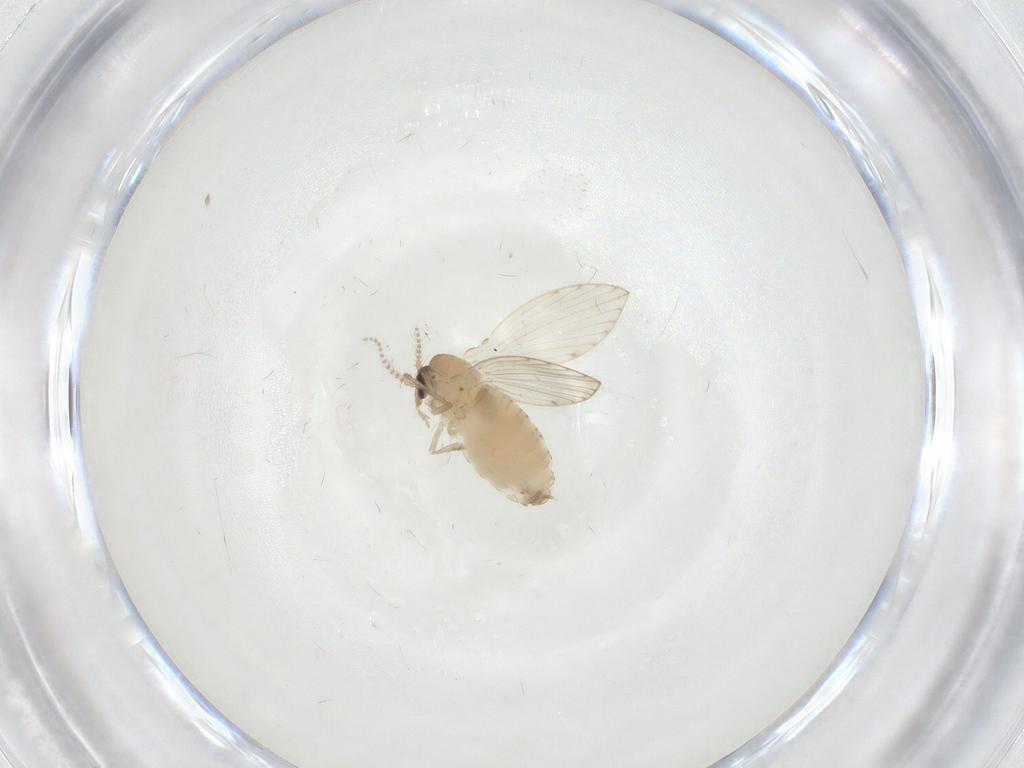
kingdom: Animalia
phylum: Arthropoda
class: Insecta
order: Diptera
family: Psychodidae
